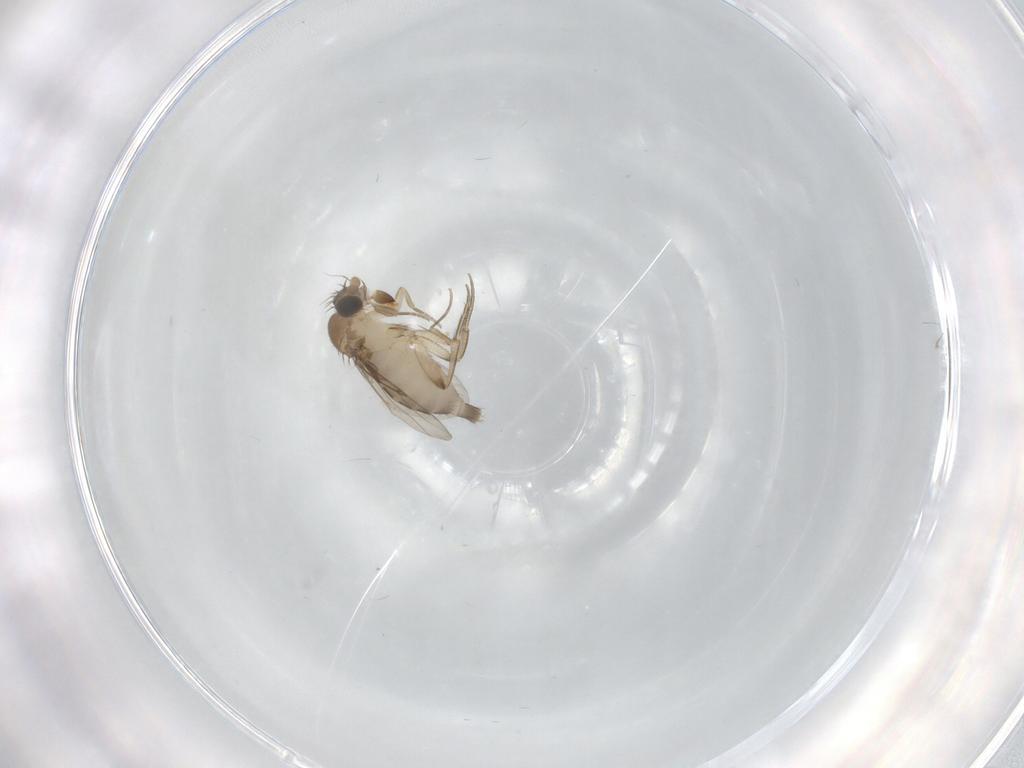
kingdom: Animalia
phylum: Arthropoda
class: Insecta
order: Diptera
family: Phoridae
